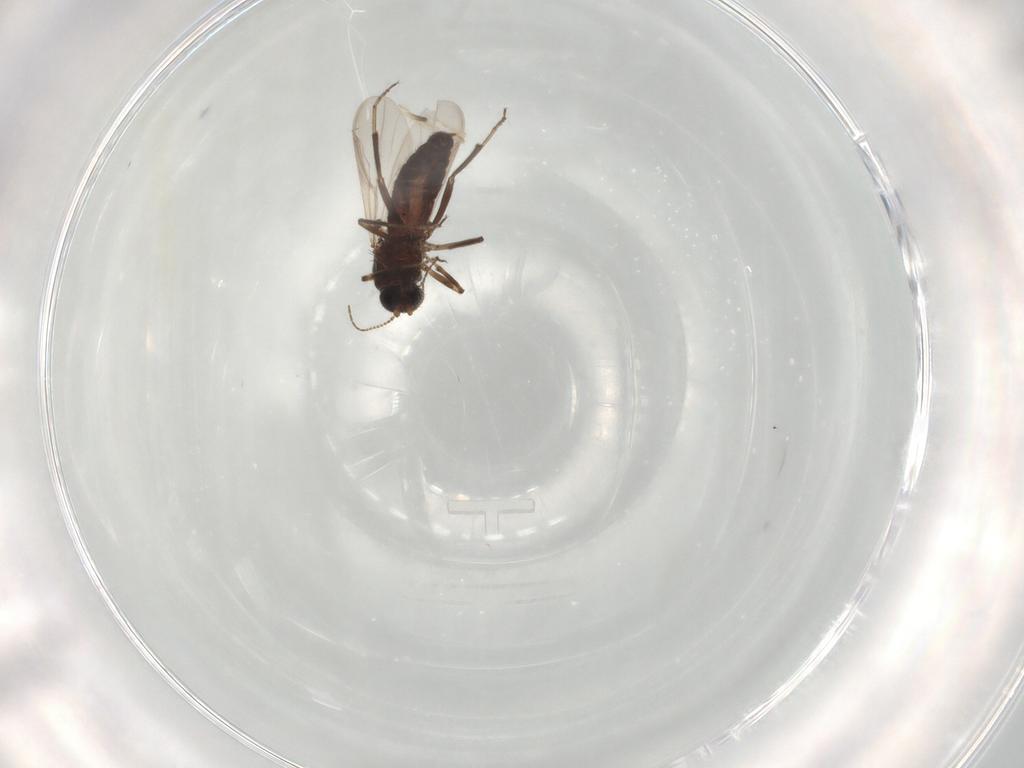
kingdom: Animalia
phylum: Arthropoda
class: Insecta
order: Diptera
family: Ceratopogonidae
